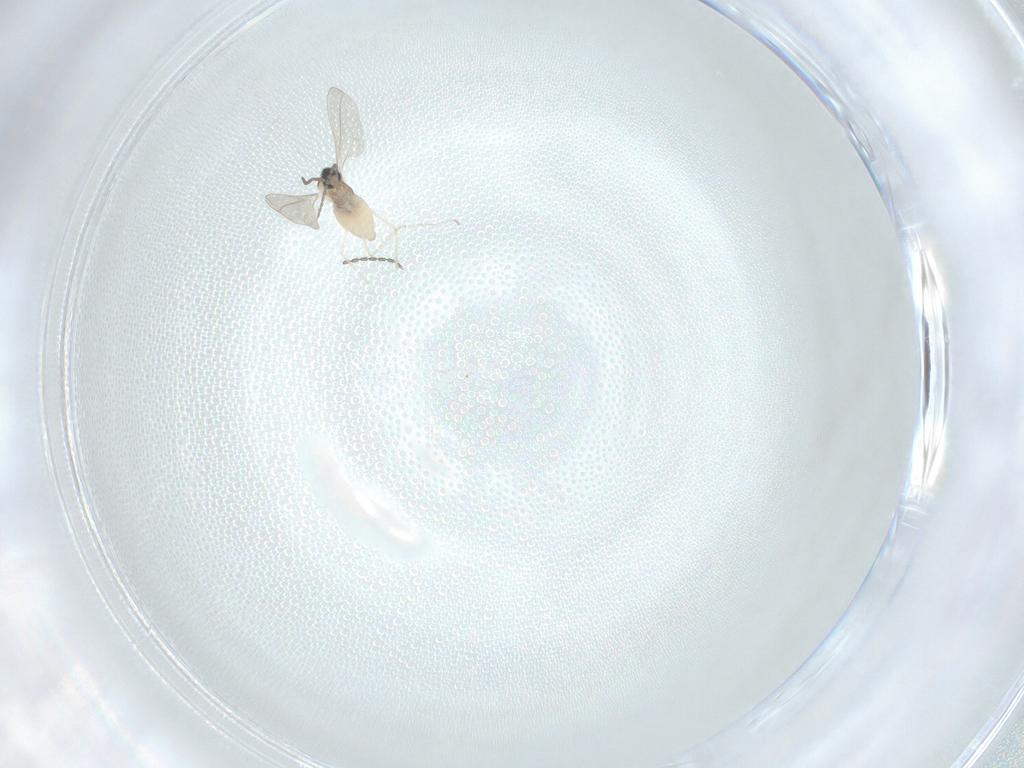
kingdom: Animalia
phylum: Arthropoda
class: Insecta
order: Diptera
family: Cecidomyiidae
